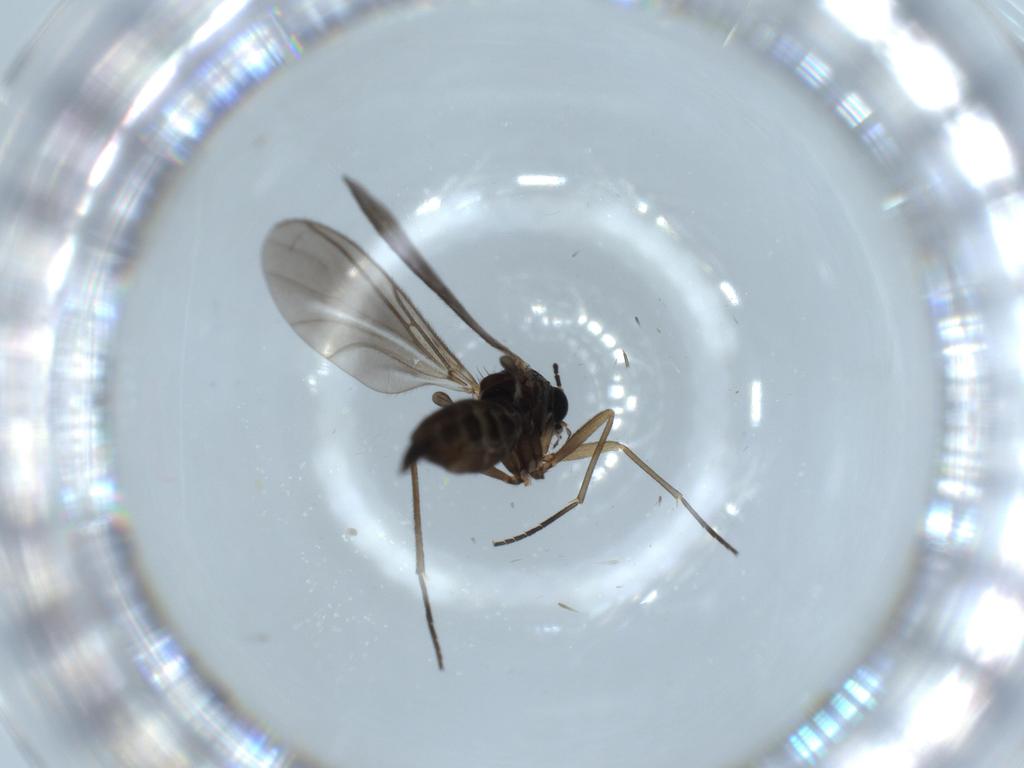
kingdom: Animalia
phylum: Arthropoda
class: Insecta
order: Diptera
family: Sciaridae
